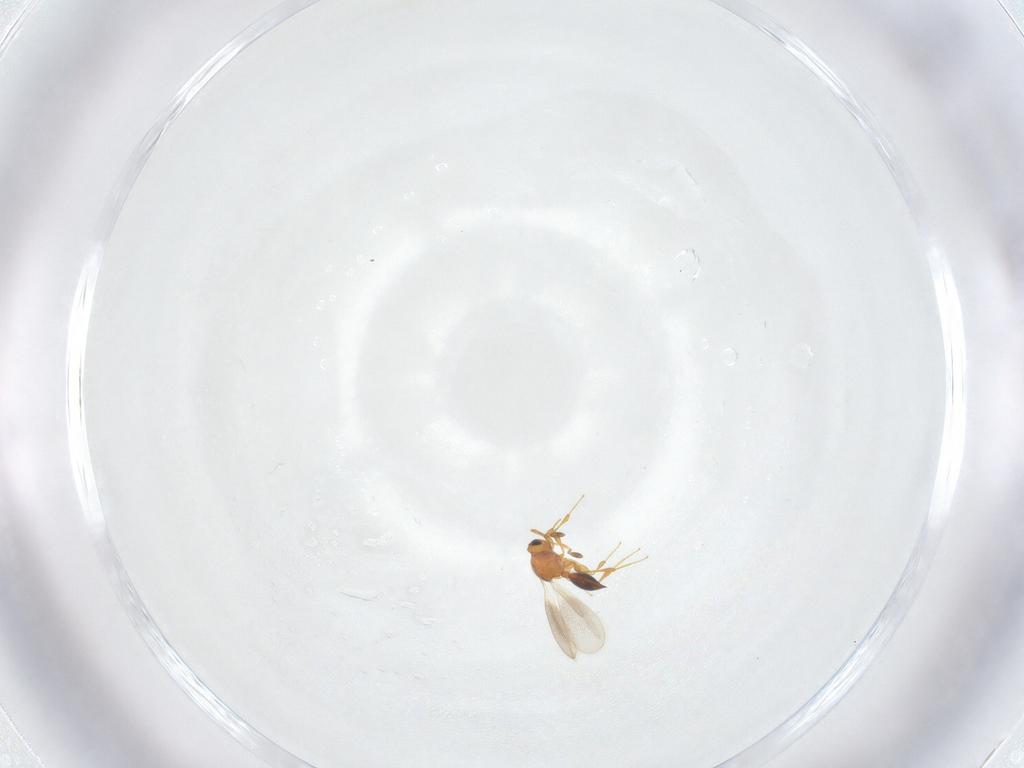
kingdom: Animalia
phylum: Arthropoda
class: Insecta
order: Hymenoptera
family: Platygastridae
